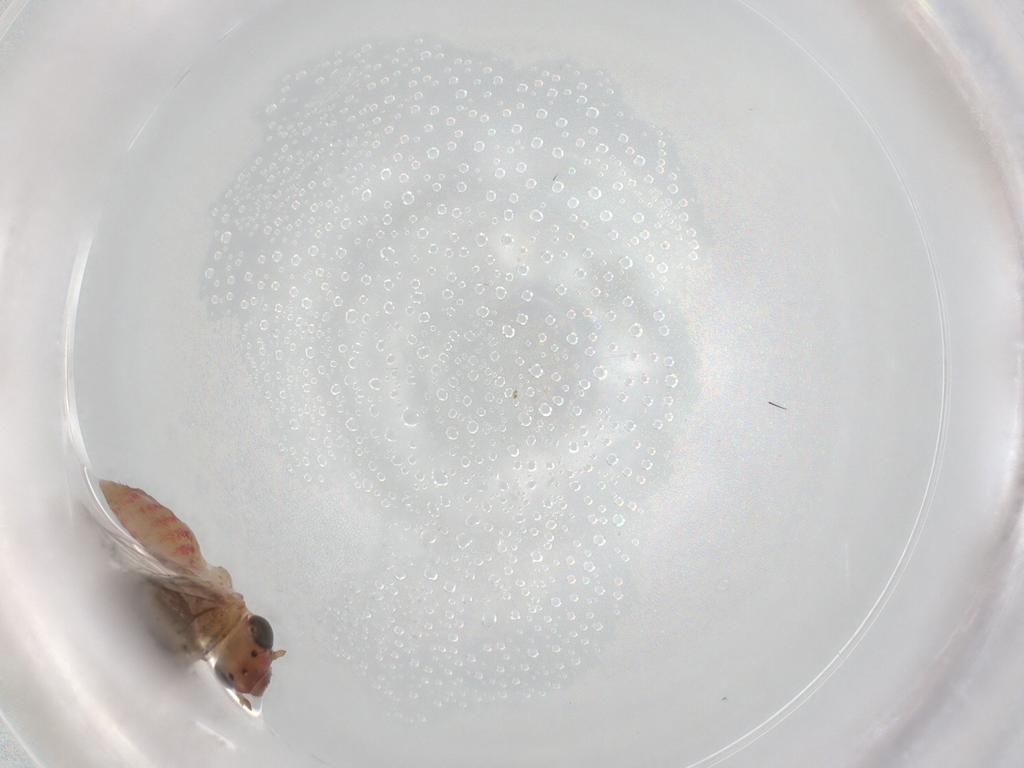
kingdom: Animalia
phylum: Arthropoda
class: Insecta
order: Psocodea
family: Lepidopsocidae
